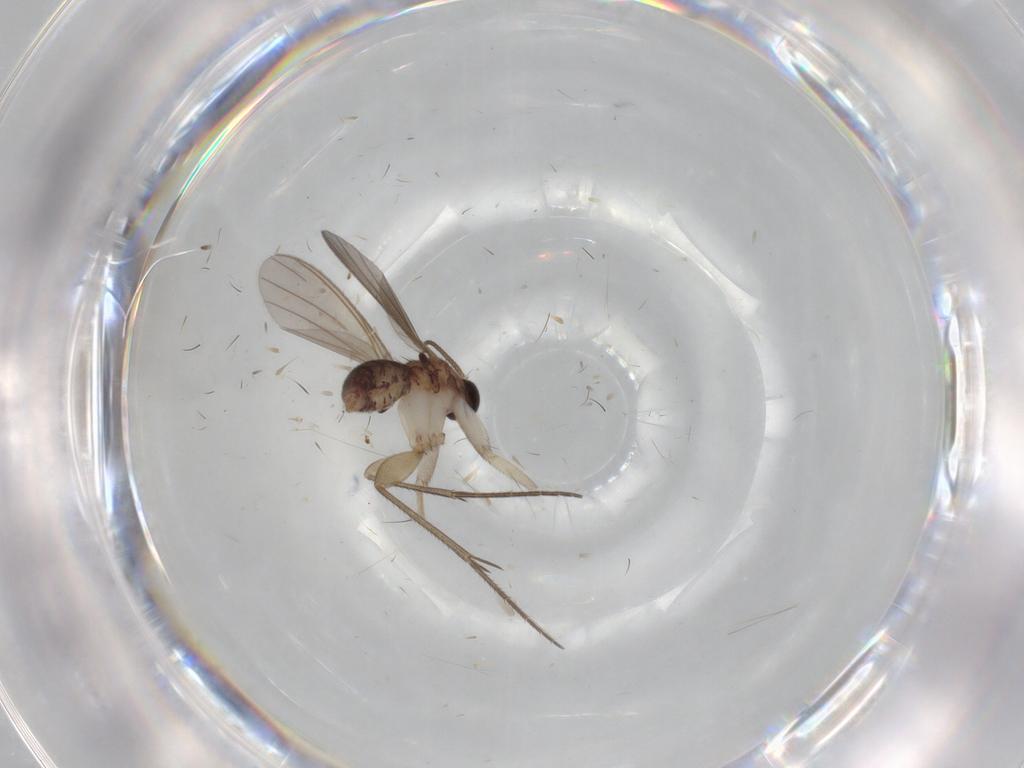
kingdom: Animalia
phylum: Arthropoda
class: Insecta
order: Diptera
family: Mycetophilidae
